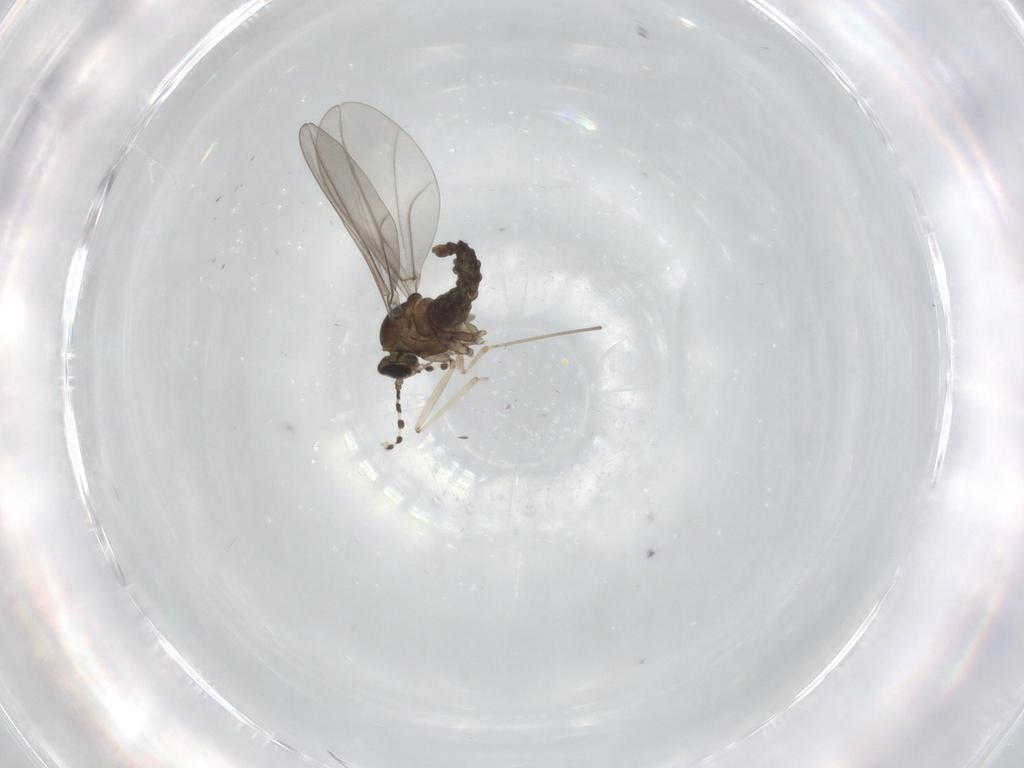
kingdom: Animalia
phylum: Arthropoda
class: Insecta
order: Diptera
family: Cecidomyiidae
